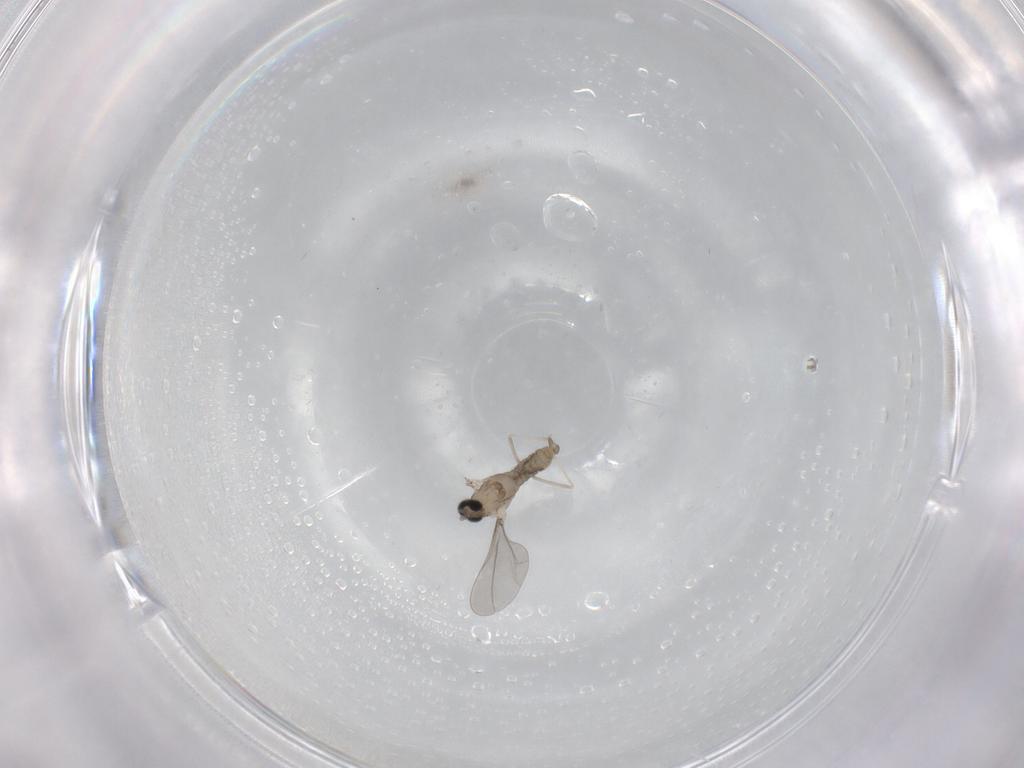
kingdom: Animalia
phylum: Arthropoda
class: Insecta
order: Diptera
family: Cecidomyiidae
